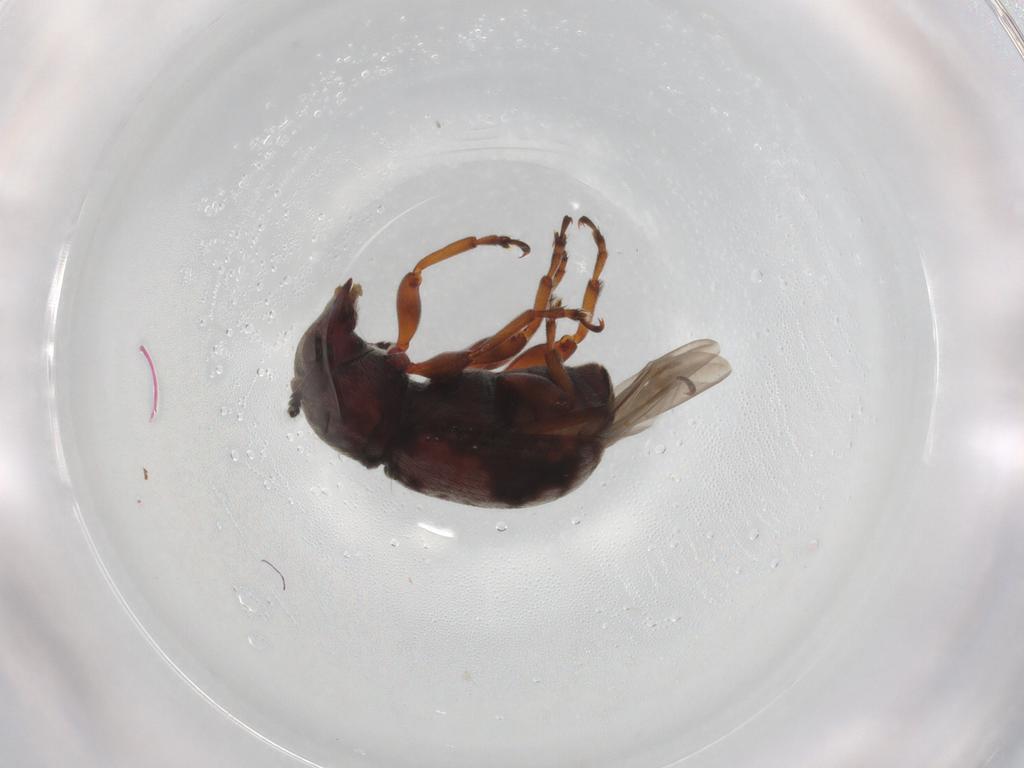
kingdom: Animalia
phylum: Arthropoda
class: Insecta
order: Coleoptera
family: Anthribidae
